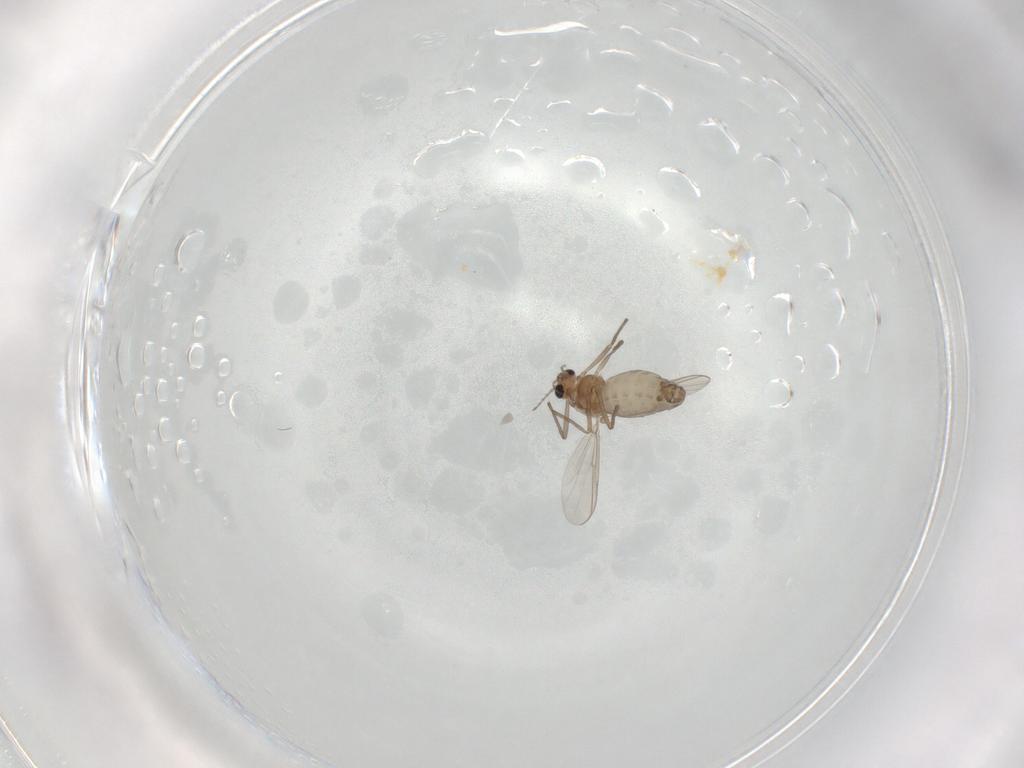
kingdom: Animalia
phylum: Arthropoda
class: Insecta
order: Diptera
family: Chironomidae
